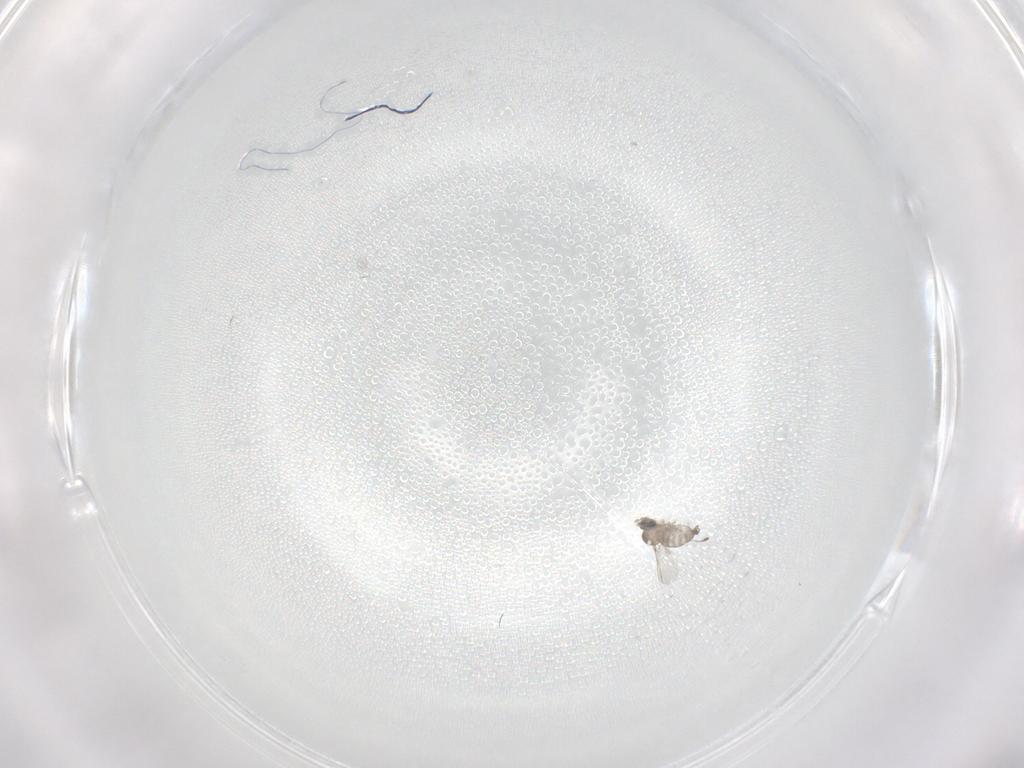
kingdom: Animalia
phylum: Arthropoda
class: Insecta
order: Diptera
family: Cecidomyiidae
